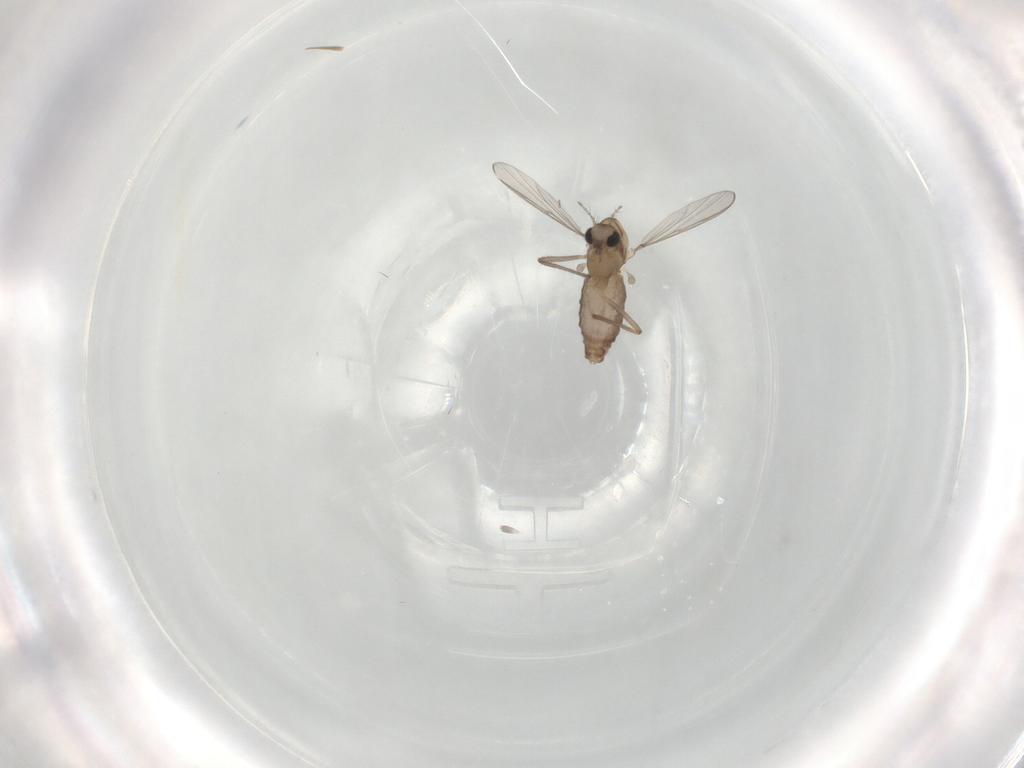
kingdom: Animalia
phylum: Arthropoda
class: Insecta
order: Diptera
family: Chironomidae
